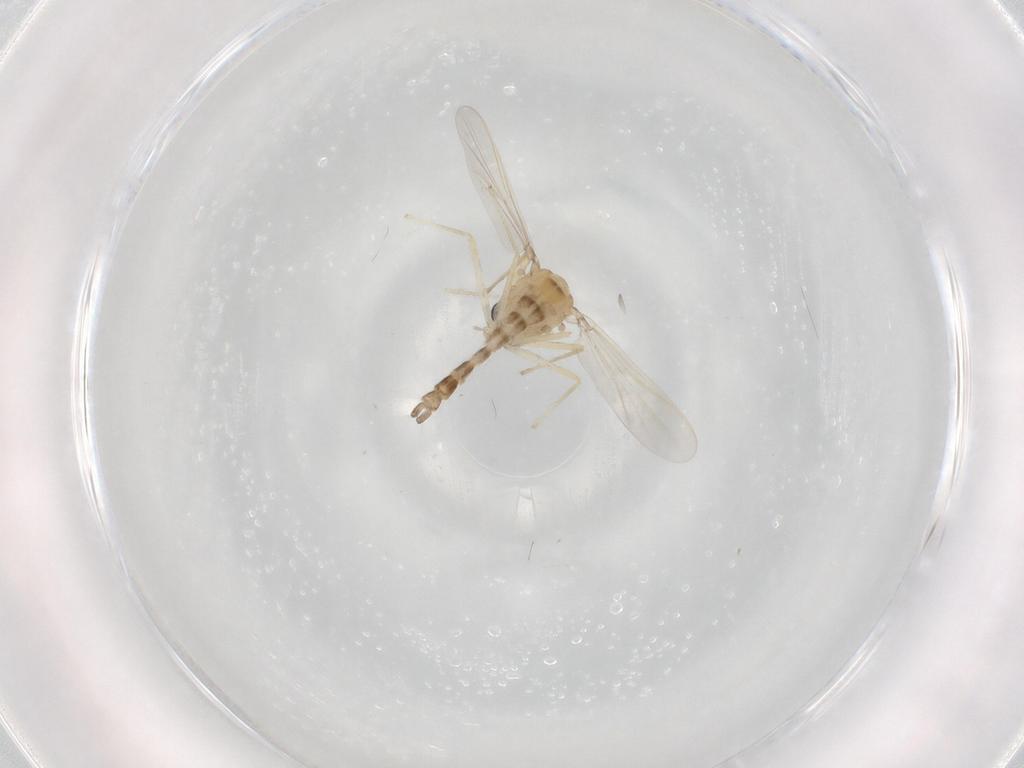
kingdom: Animalia
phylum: Arthropoda
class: Insecta
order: Diptera
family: Chironomidae
